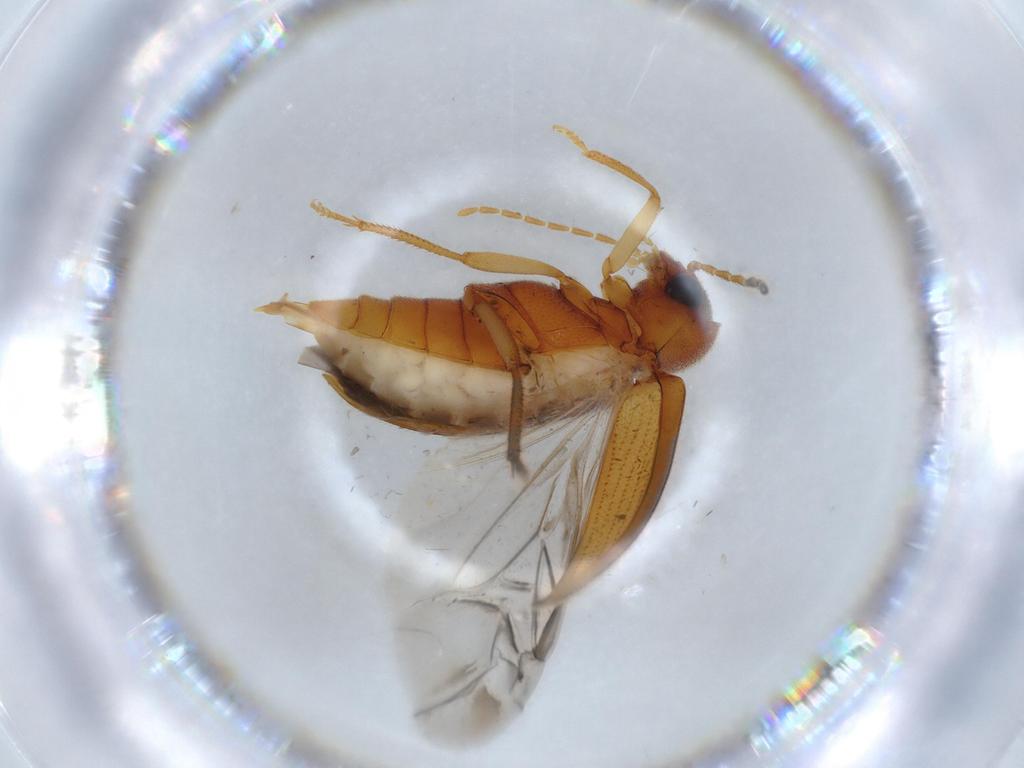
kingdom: Animalia
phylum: Arthropoda
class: Insecta
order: Coleoptera
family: Ptilodactylidae
